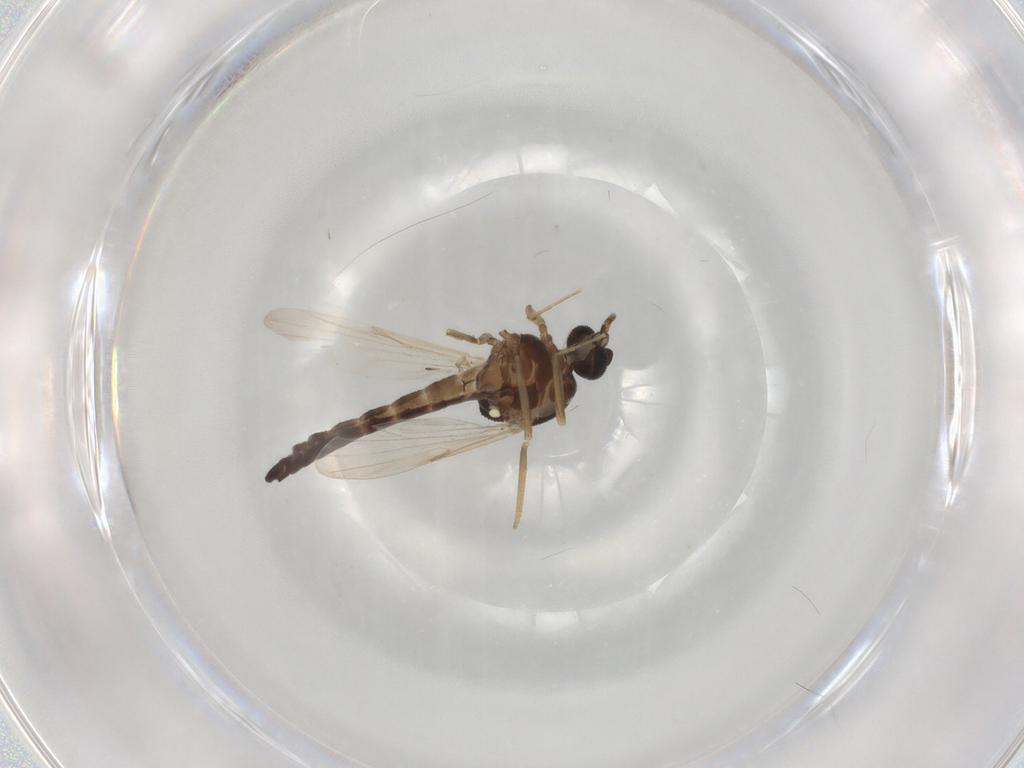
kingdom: Animalia
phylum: Arthropoda
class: Insecta
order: Diptera
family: Ceratopogonidae
